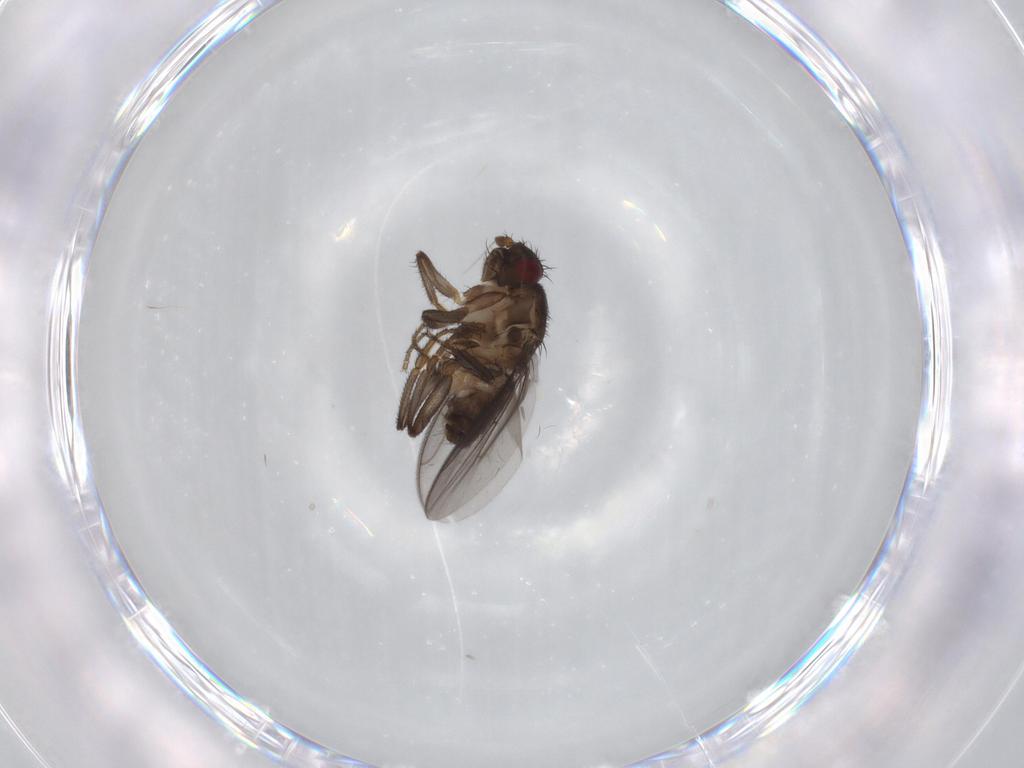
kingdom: Animalia
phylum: Arthropoda
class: Insecta
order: Diptera
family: Sphaeroceridae
